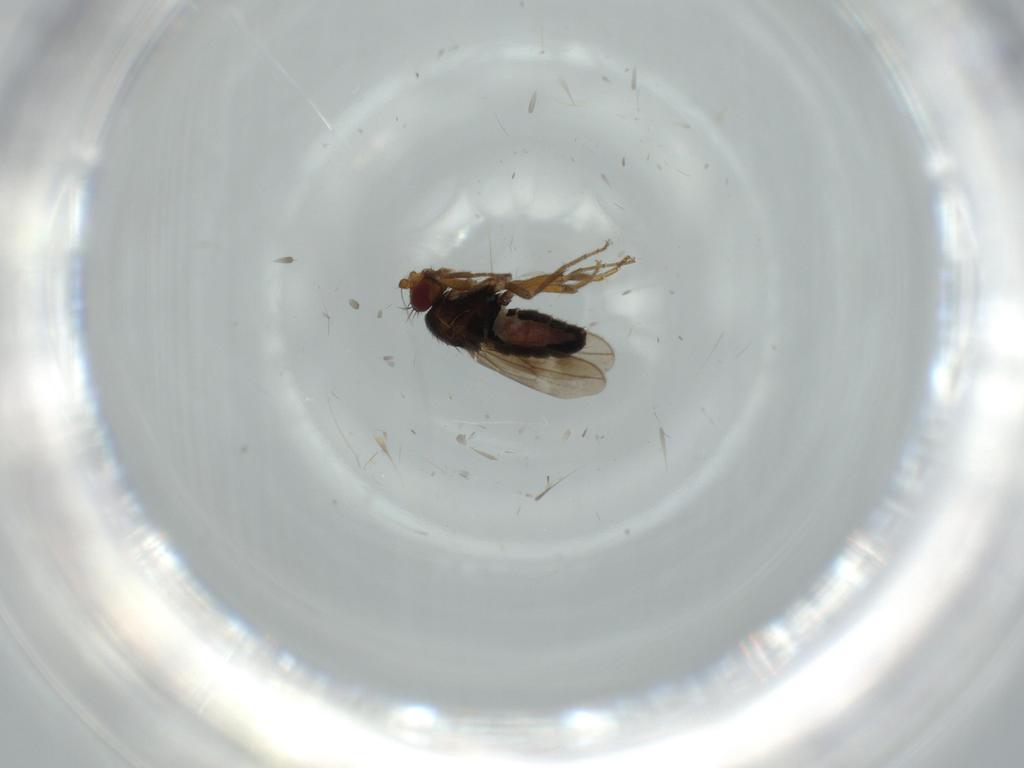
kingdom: Animalia
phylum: Arthropoda
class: Insecta
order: Diptera
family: Sphaeroceridae
